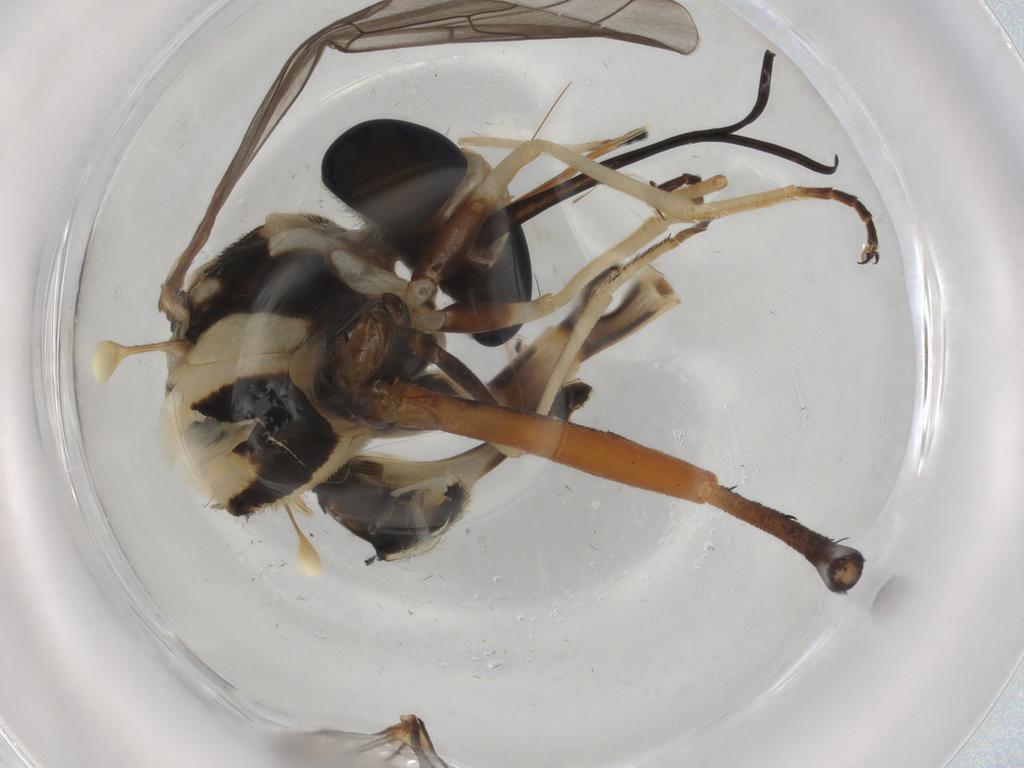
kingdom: Animalia
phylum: Arthropoda
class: Insecta
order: Diptera
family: Bombyliidae
